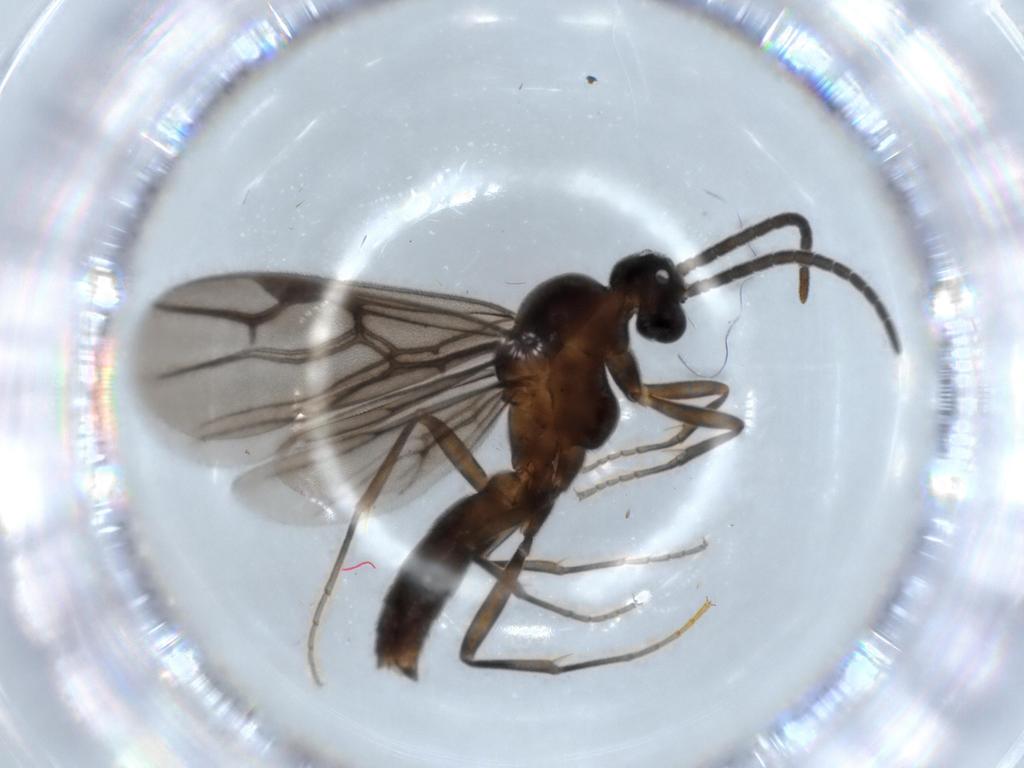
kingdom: Animalia
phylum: Arthropoda
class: Insecta
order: Hymenoptera
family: Formicidae
